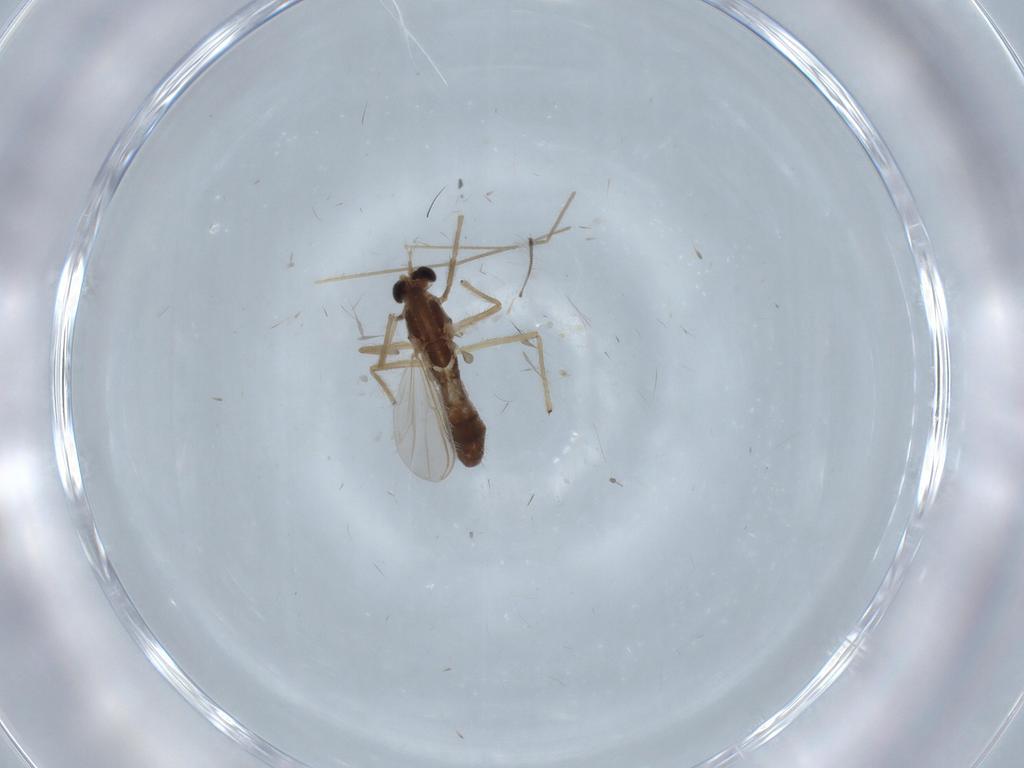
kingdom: Animalia
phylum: Arthropoda
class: Insecta
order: Diptera
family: Chironomidae
